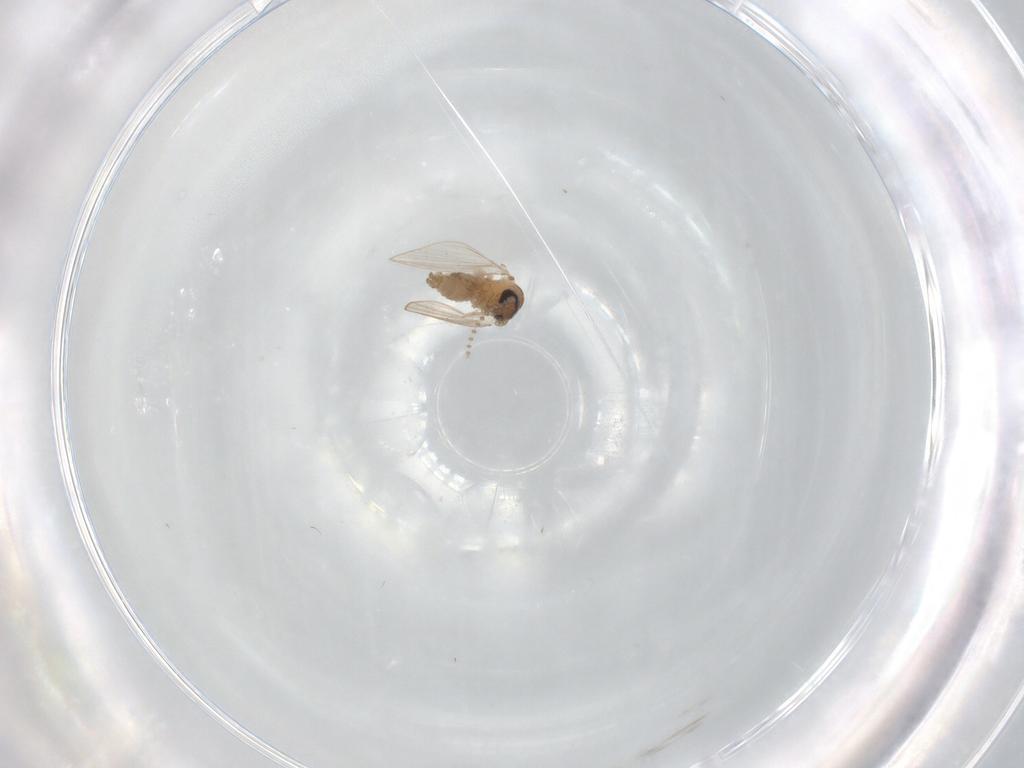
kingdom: Animalia
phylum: Arthropoda
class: Insecta
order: Diptera
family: Psychodidae
